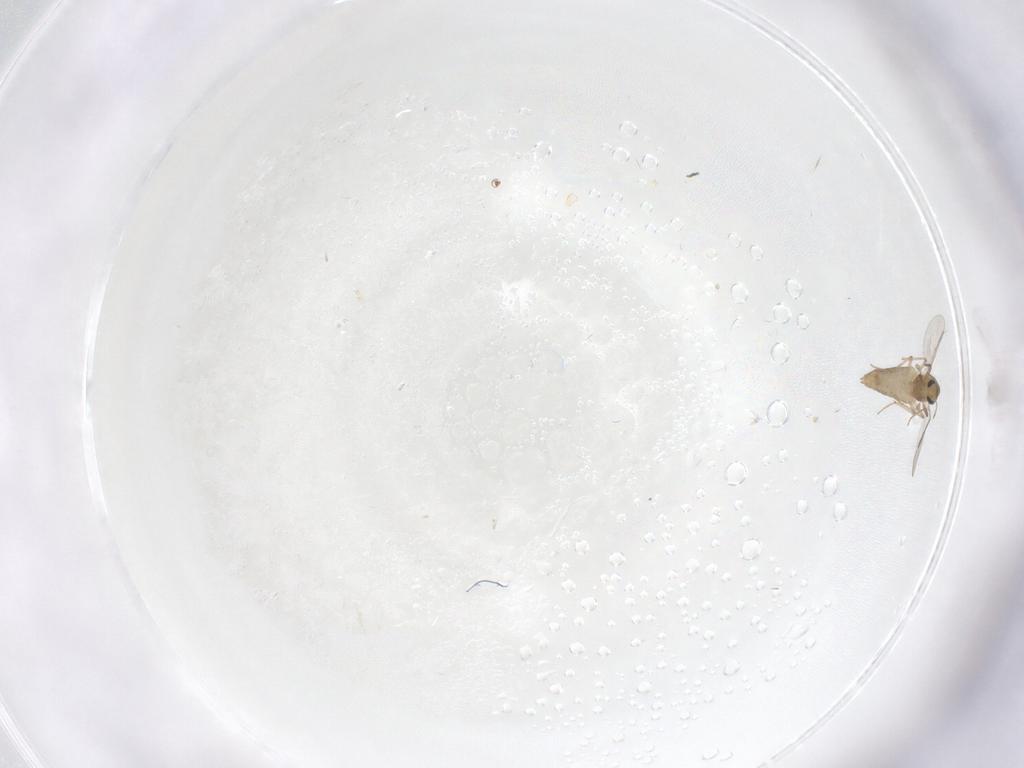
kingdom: Animalia
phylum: Arthropoda
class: Insecta
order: Diptera
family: Chironomidae
